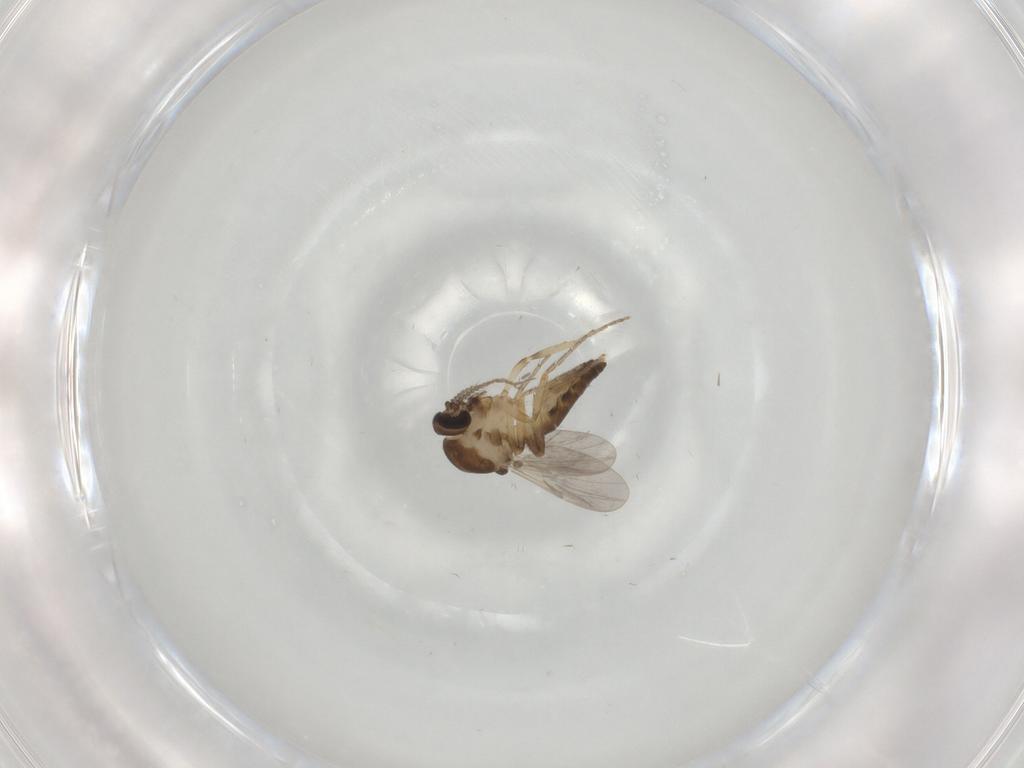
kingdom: Animalia
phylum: Arthropoda
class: Insecta
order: Diptera
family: Ceratopogonidae
